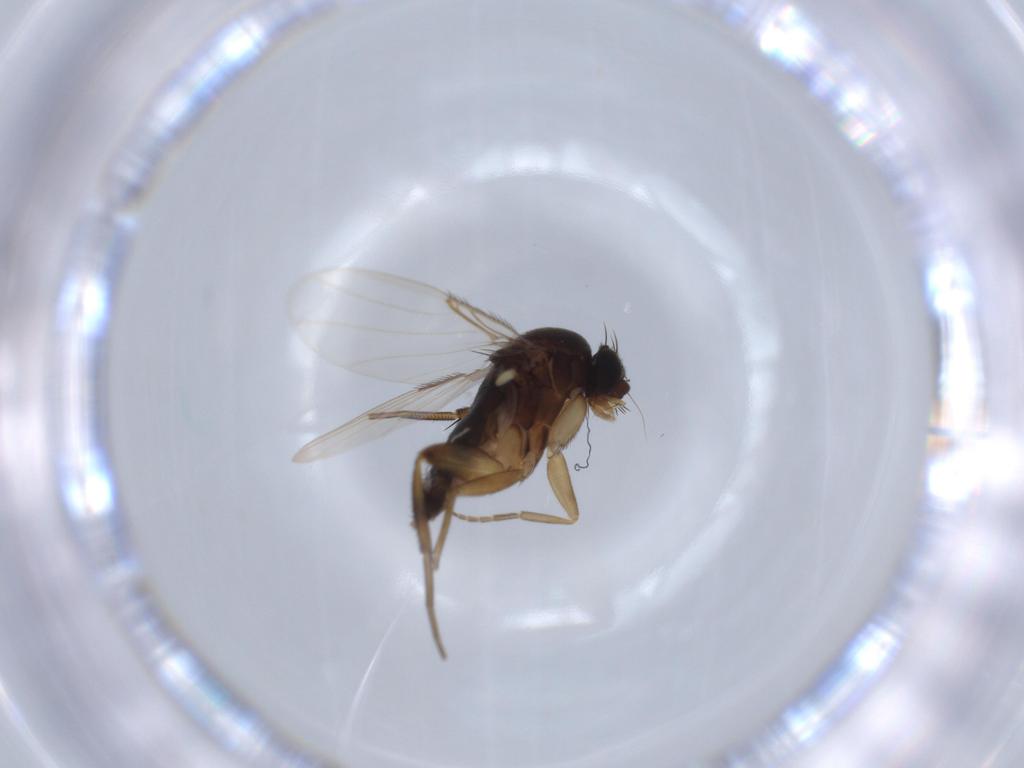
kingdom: Animalia
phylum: Arthropoda
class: Insecta
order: Diptera
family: Phoridae
